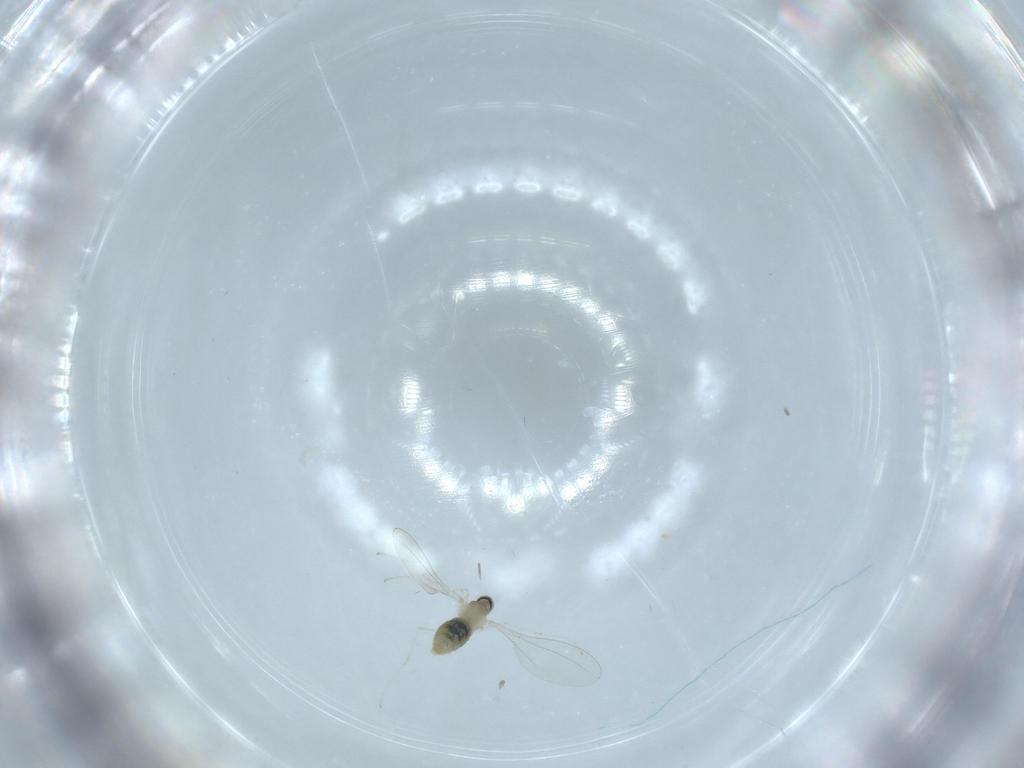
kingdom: Animalia
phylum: Arthropoda
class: Insecta
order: Diptera
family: Cecidomyiidae
